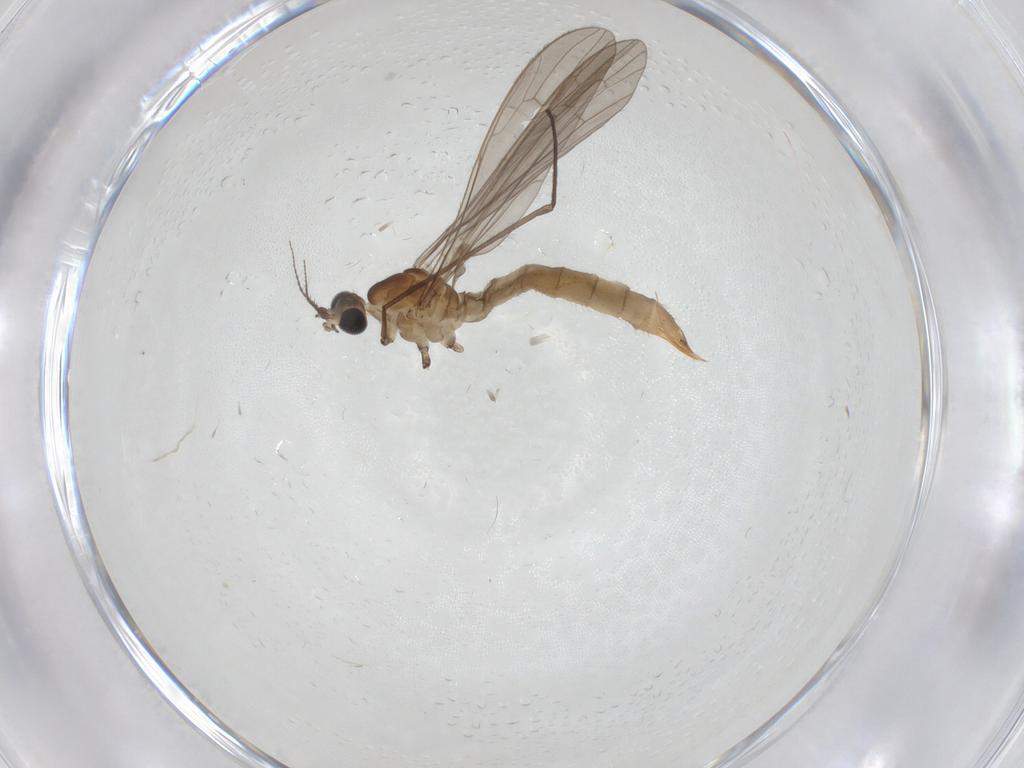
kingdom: Animalia
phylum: Arthropoda
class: Insecta
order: Diptera
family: Limoniidae
